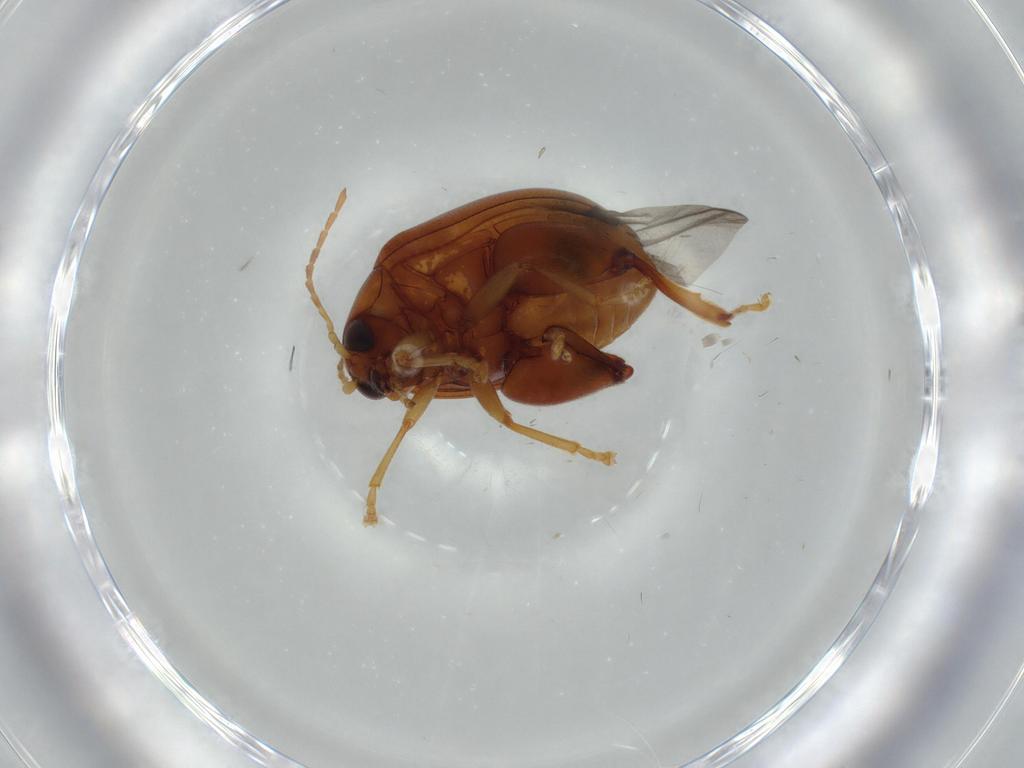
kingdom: Animalia
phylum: Arthropoda
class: Insecta
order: Coleoptera
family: Chrysomelidae
